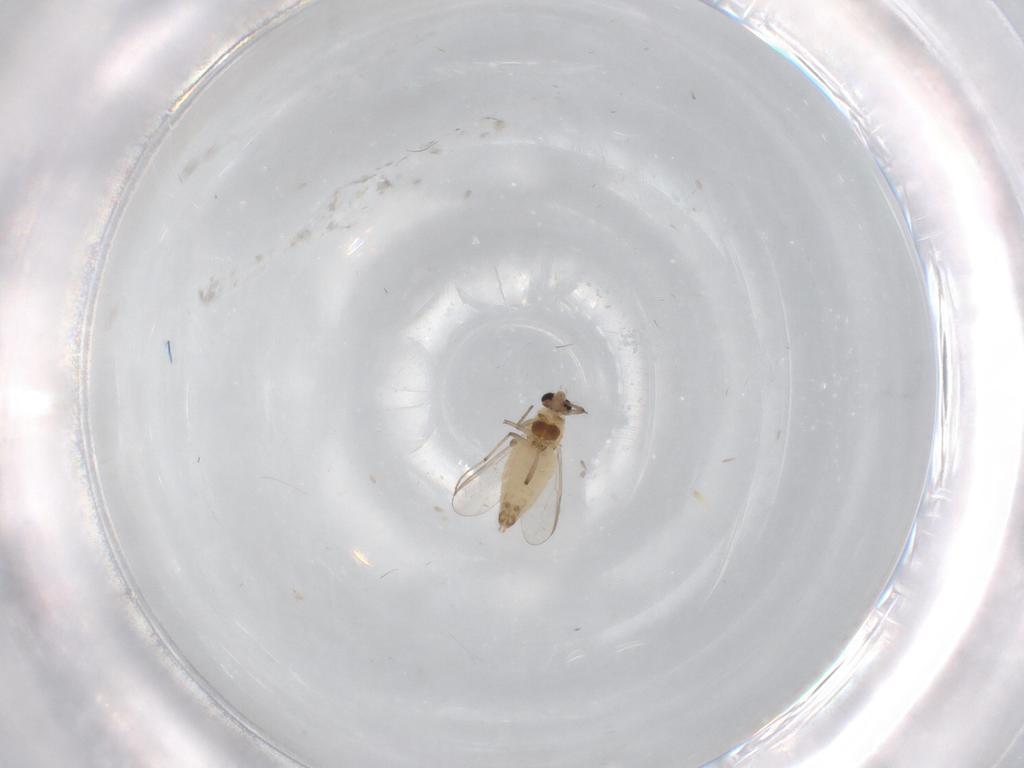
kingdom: Animalia
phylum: Arthropoda
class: Insecta
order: Diptera
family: Chironomidae
